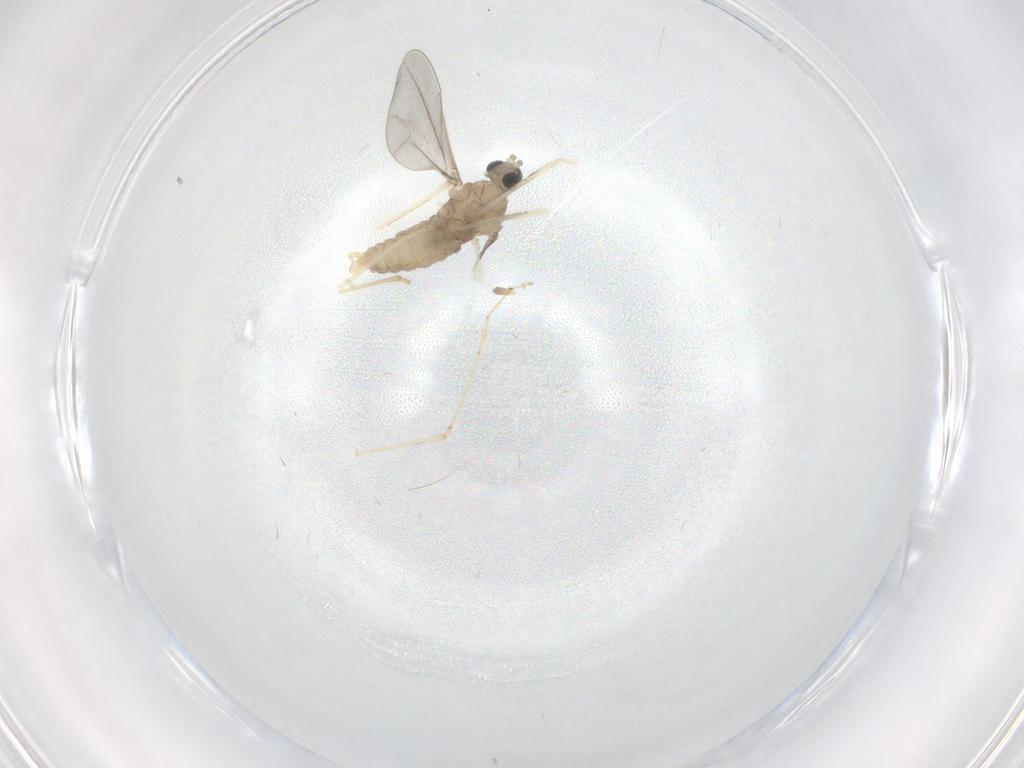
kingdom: Animalia
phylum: Arthropoda
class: Insecta
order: Diptera
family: Cecidomyiidae
